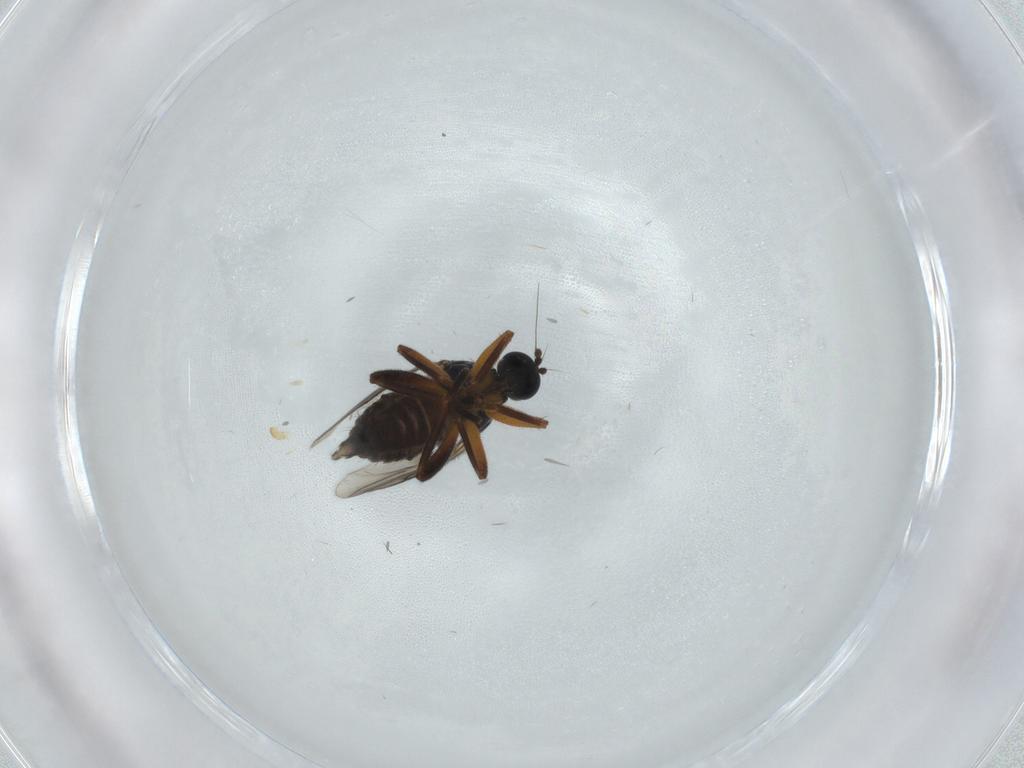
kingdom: Animalia
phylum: Arthropoda
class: Insecta
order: Diptera
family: Hybotidae
